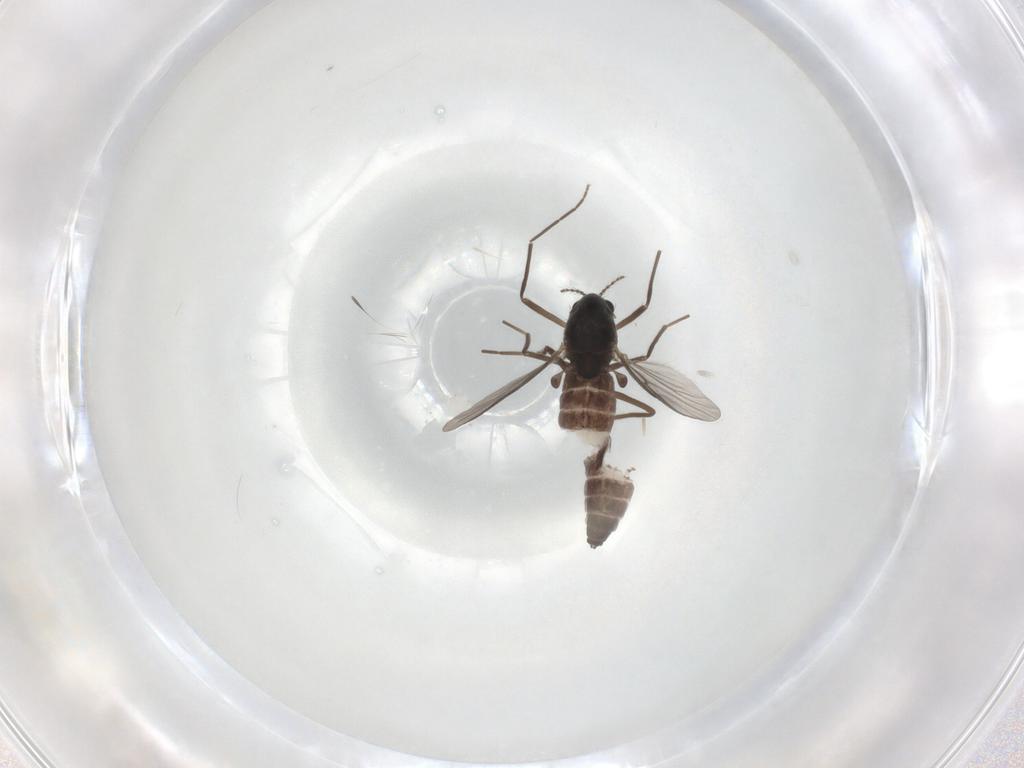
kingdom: Animalia
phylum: Arthropoda
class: Insecta
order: Diptera
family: Chironomidae
